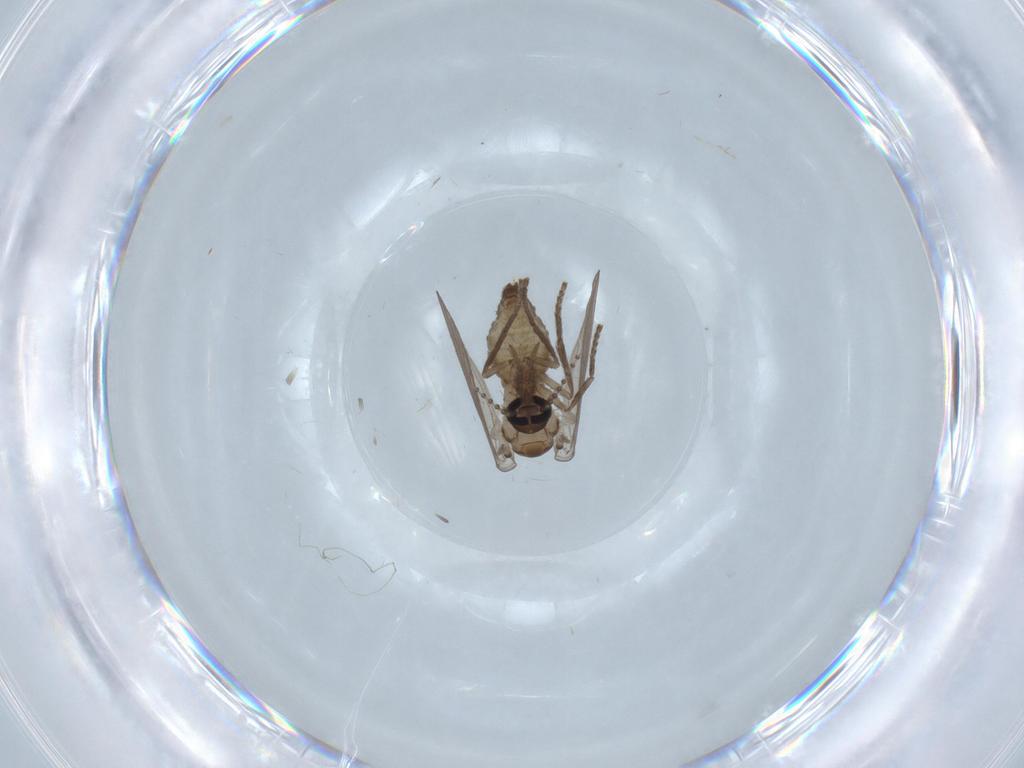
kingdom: Animalia
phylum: Arthropoda
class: Insecta
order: Diptera
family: Psychodidae
